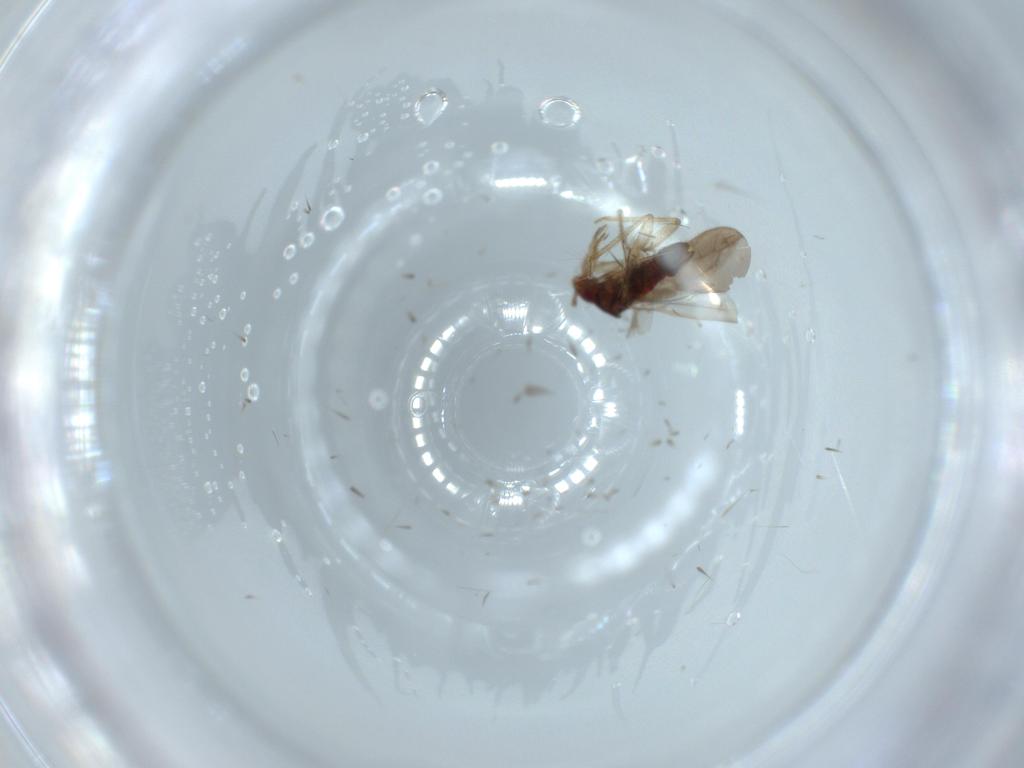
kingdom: Animalia
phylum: Arthropoda
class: Insecta
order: Hemiptera
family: Ceratocombidae
